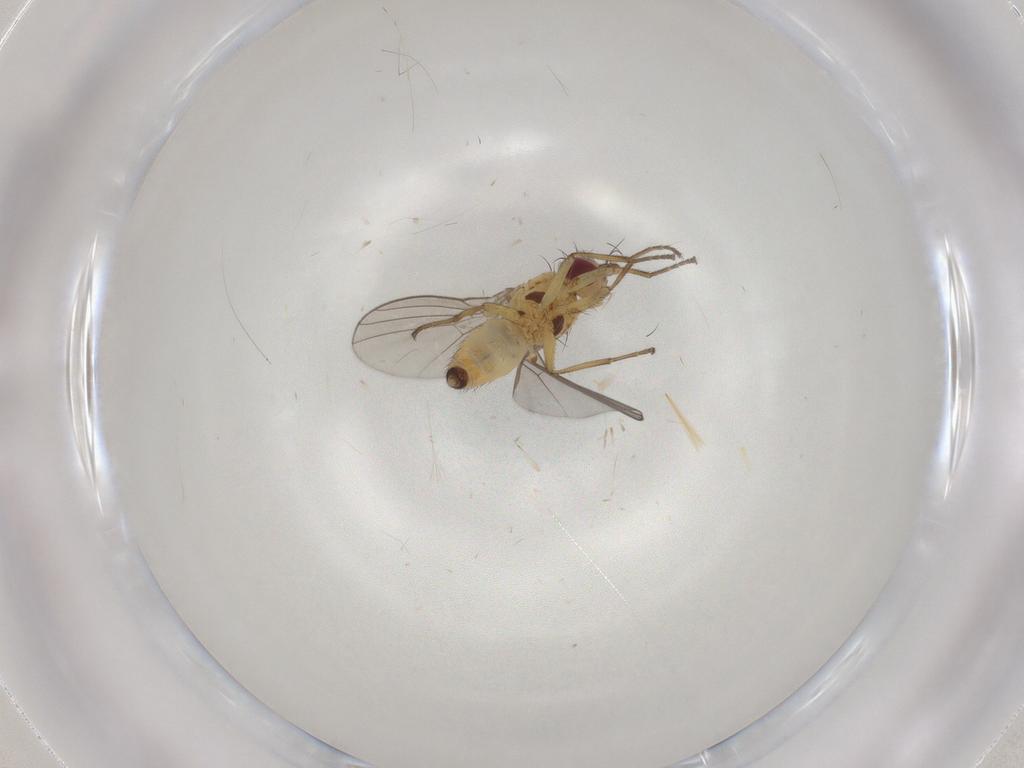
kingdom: Animalia
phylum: Arthropoda
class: Insecta
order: Diptera
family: Agromyzidae
